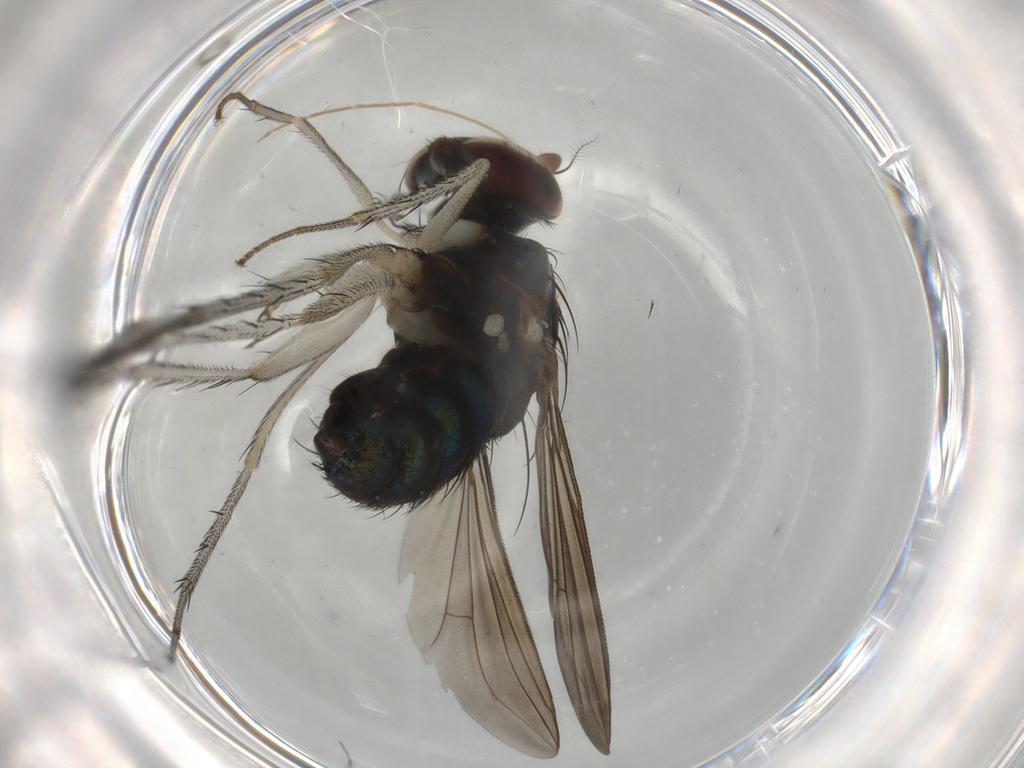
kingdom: Animalia
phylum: Arthropoda
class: Insecta
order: Diptera
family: Dolichopodidae
